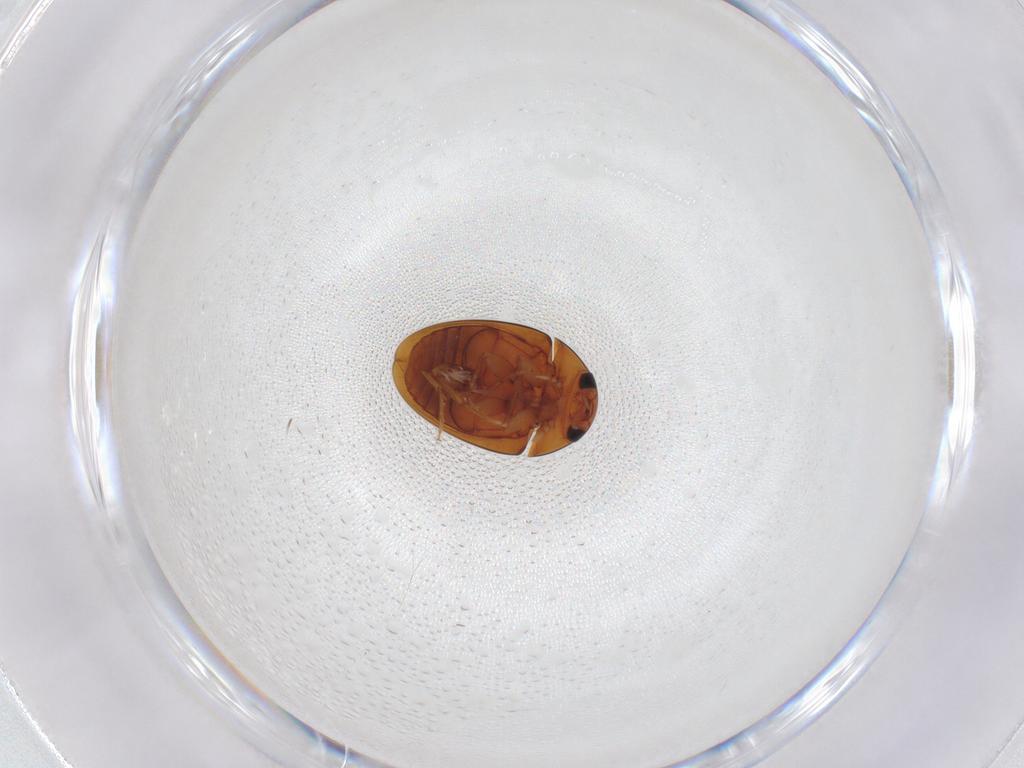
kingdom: Animalia
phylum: Arthropoda
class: Insecta
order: Coleoptera
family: Phalacridae
